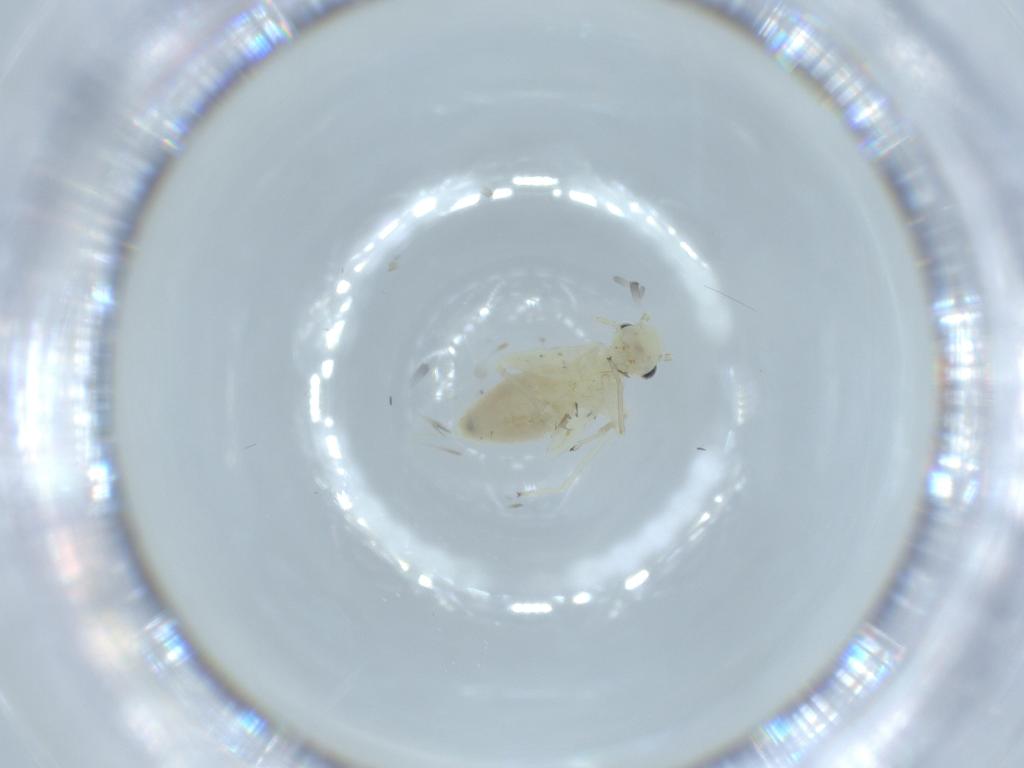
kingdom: Animalia
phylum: Arthropoda
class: Insecta
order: Psocodea
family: Caeciliusidae
